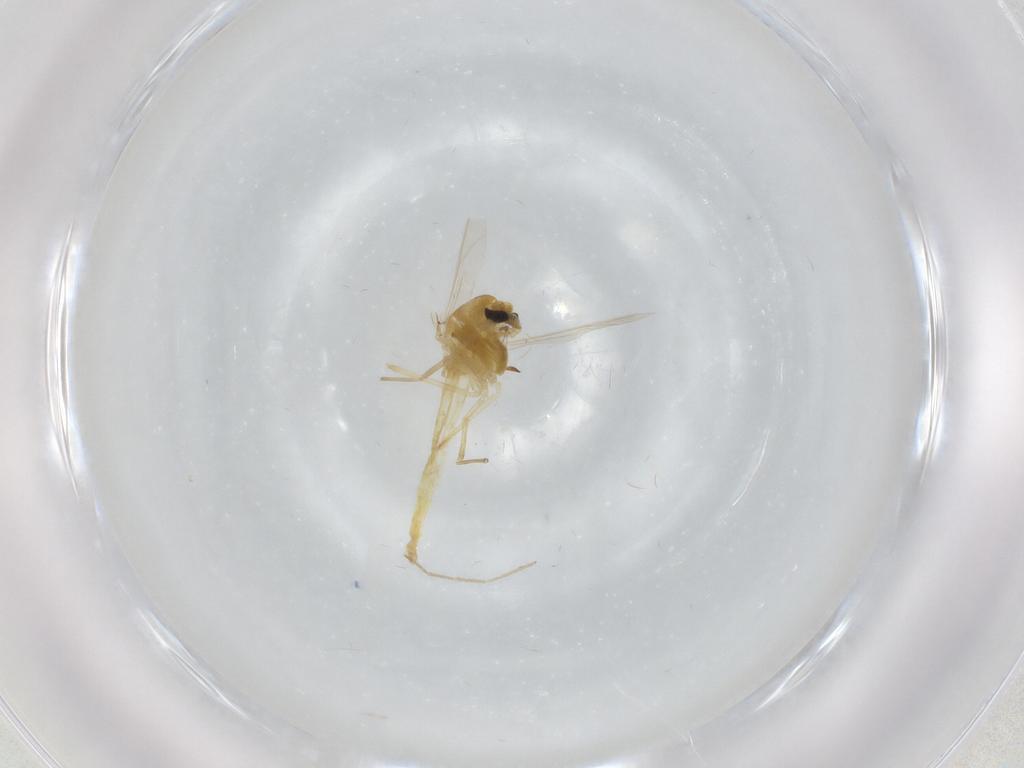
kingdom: Animalia
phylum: Arthropoda
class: Insecta
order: Diptera
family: Chironomidae
